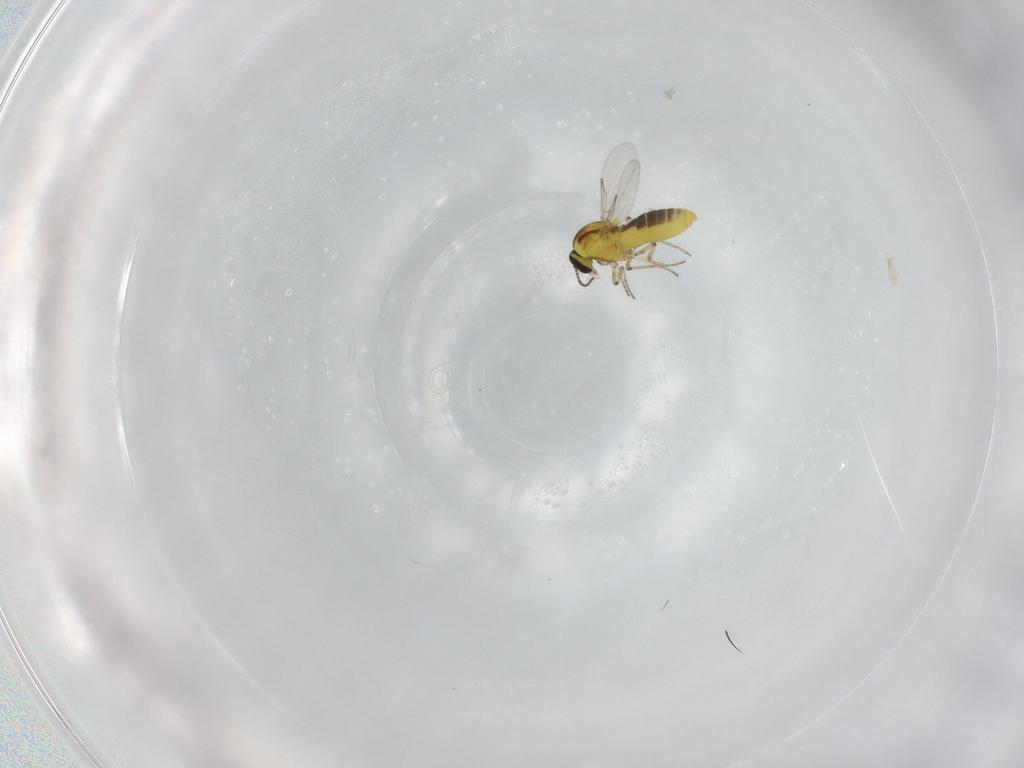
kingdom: Animalia
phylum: Arthropoda
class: Insecta
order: Diptera
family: Ceratopogonidae
